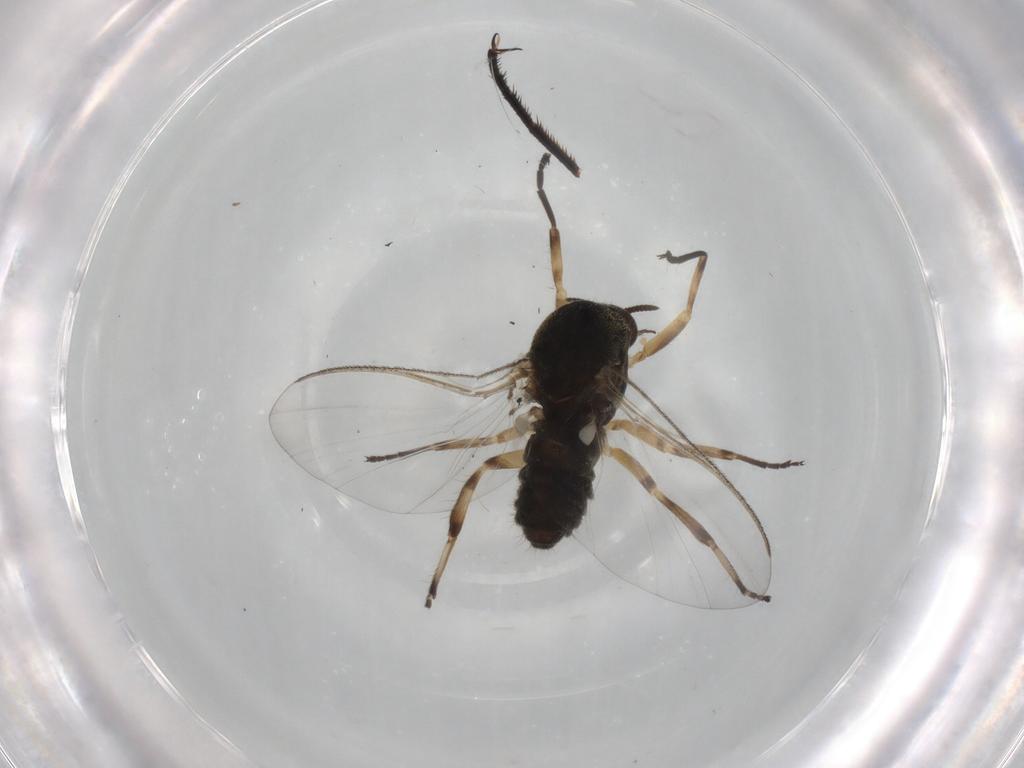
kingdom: Animalia
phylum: Arthropoda
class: Insecta
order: Diptera
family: Simuliidae
